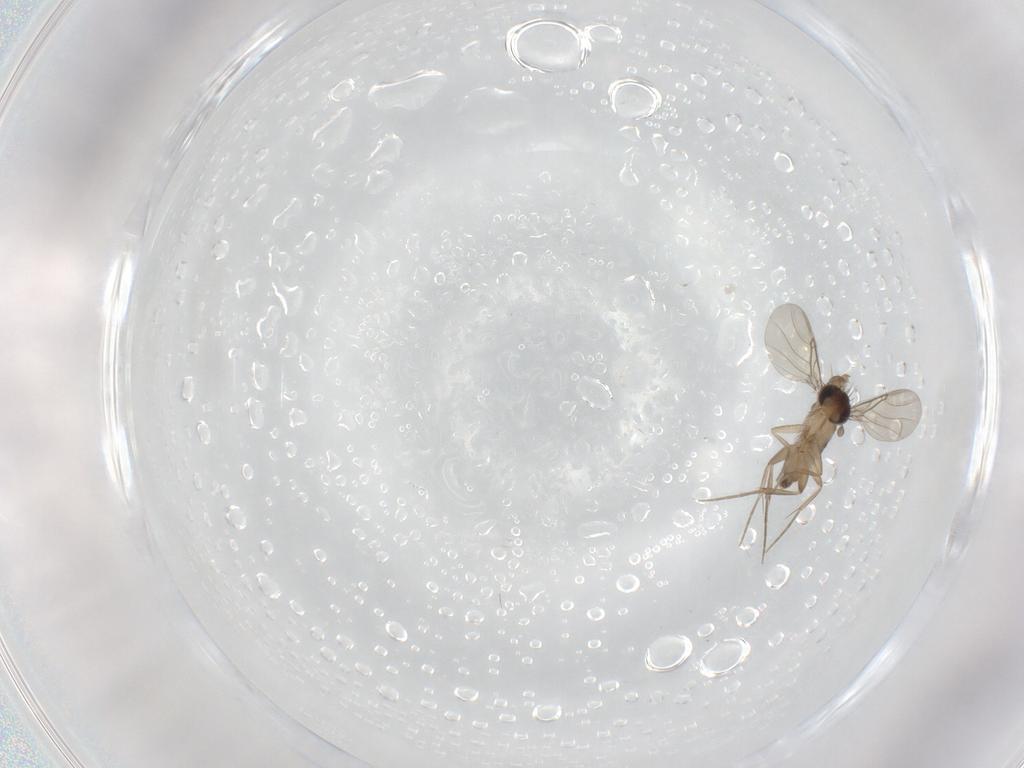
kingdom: Animalia
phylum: Arthropoda
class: Insecta
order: Diptera
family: Phoridae
